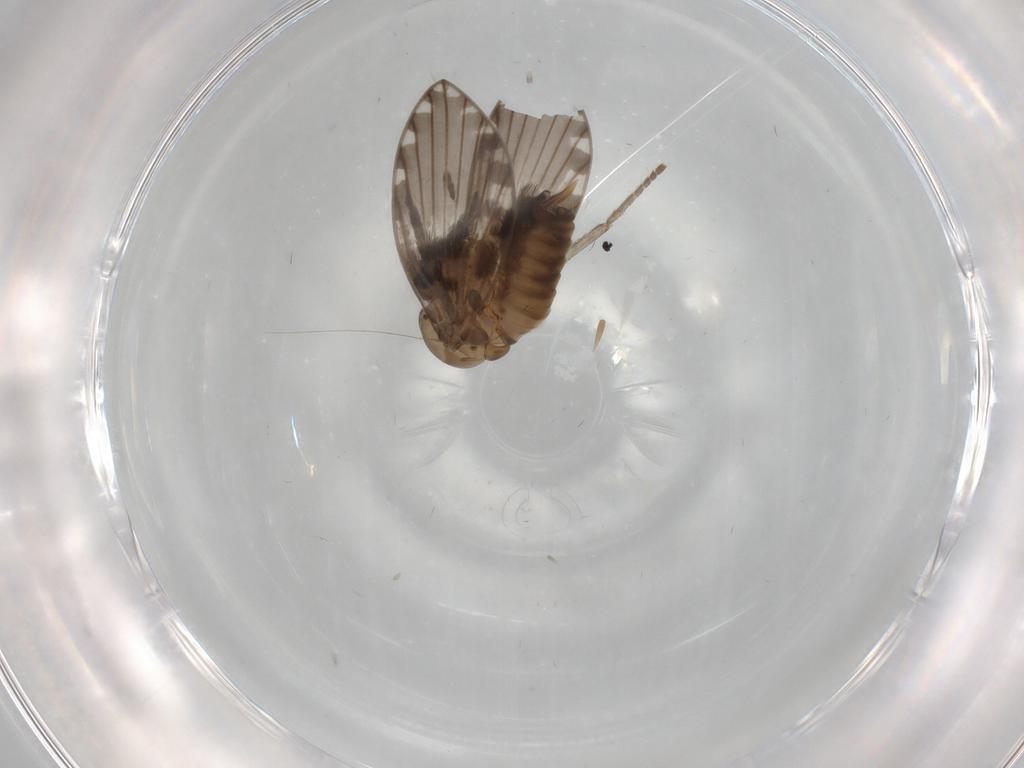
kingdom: Animalia
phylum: Arthropoda
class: Insecta
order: Diptera
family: Psychodidae
